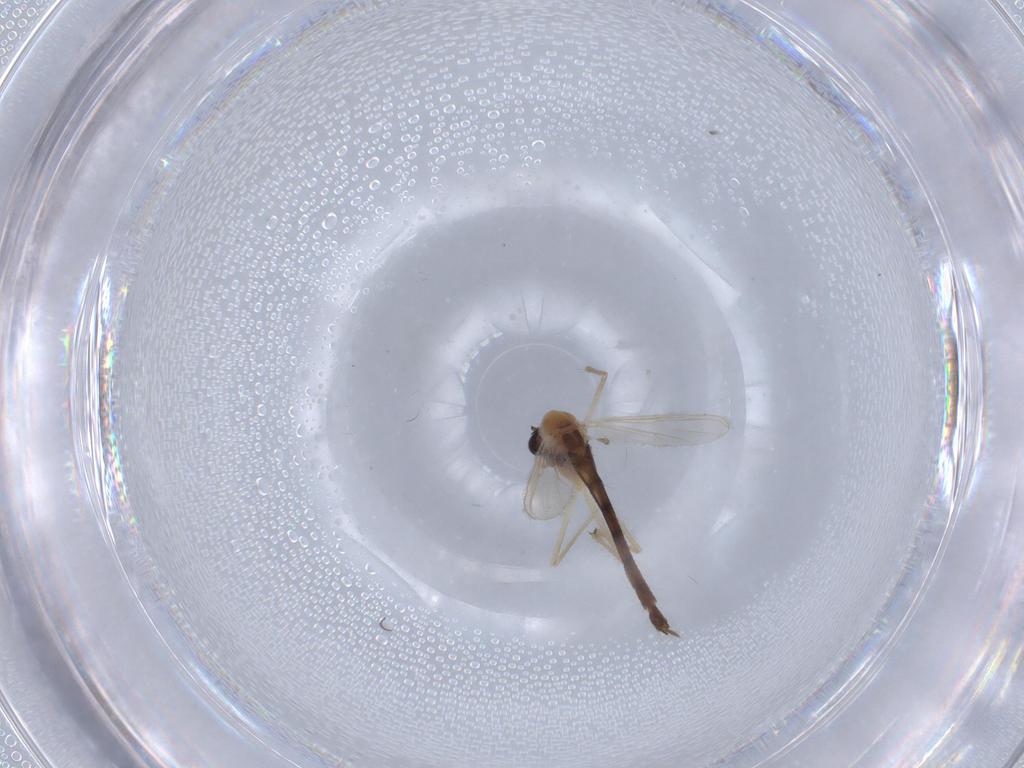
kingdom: Animalia
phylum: Arthropoda
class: Insecta
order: Diptera
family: Chironomidae
